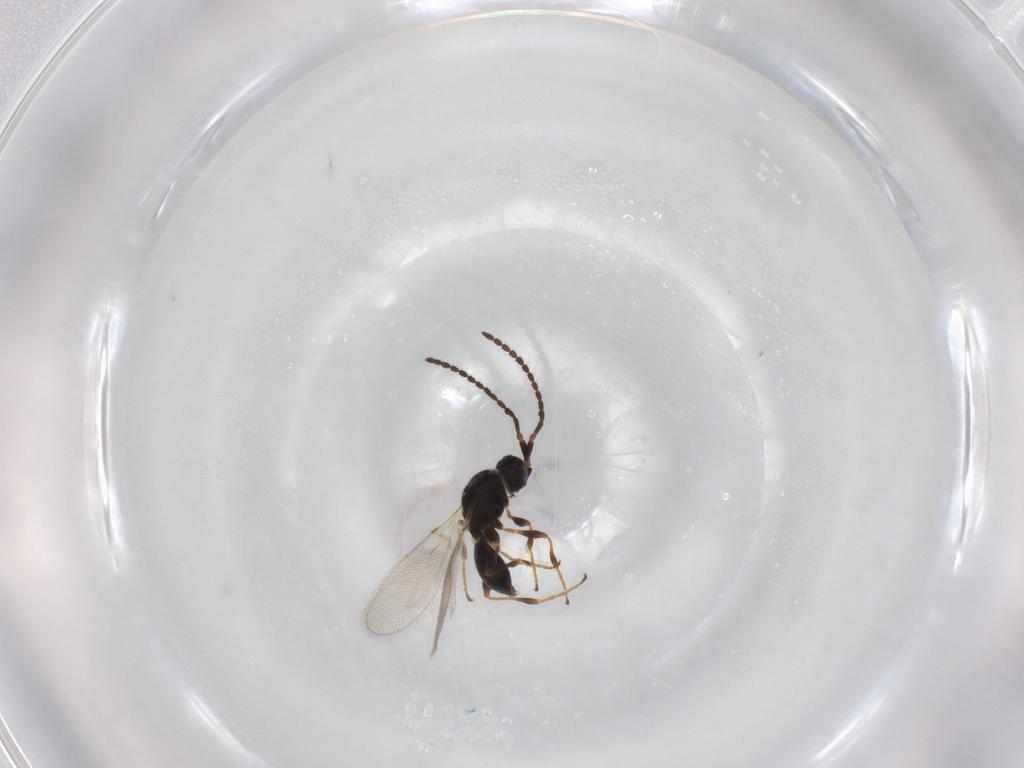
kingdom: Animalia
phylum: Arthropoda
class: Insecta
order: Hymenoptera
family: Diapriidae
